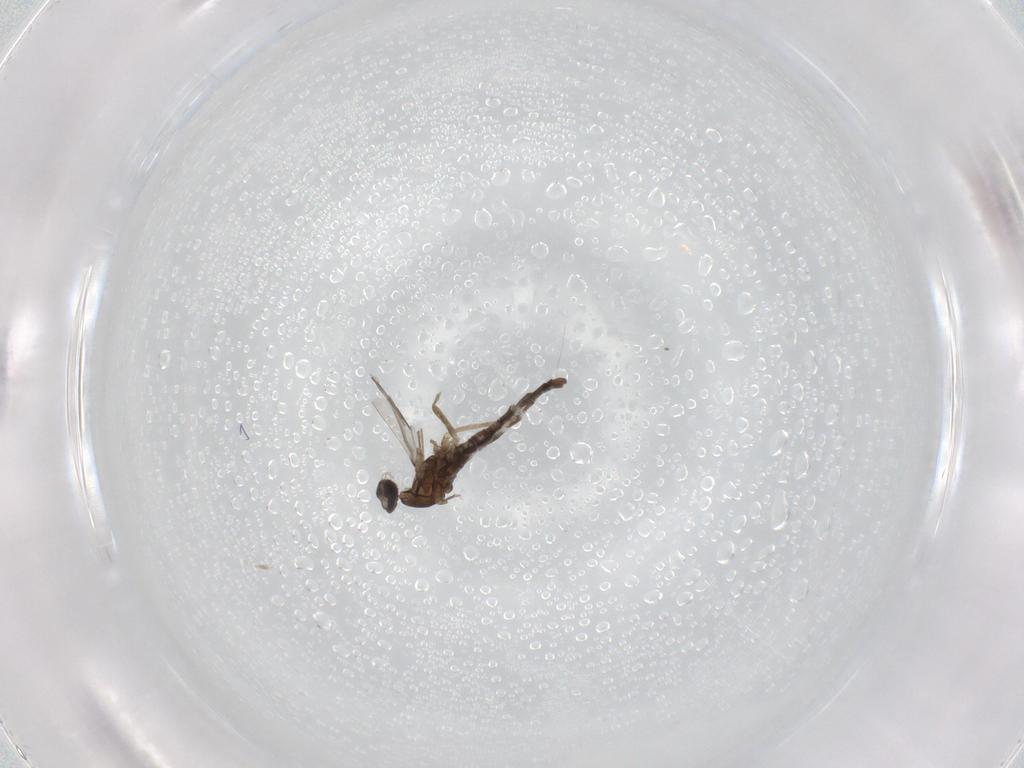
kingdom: Animalia
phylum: Arthropoda
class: Insecta
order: Diptera
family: Cecidomyiidae
